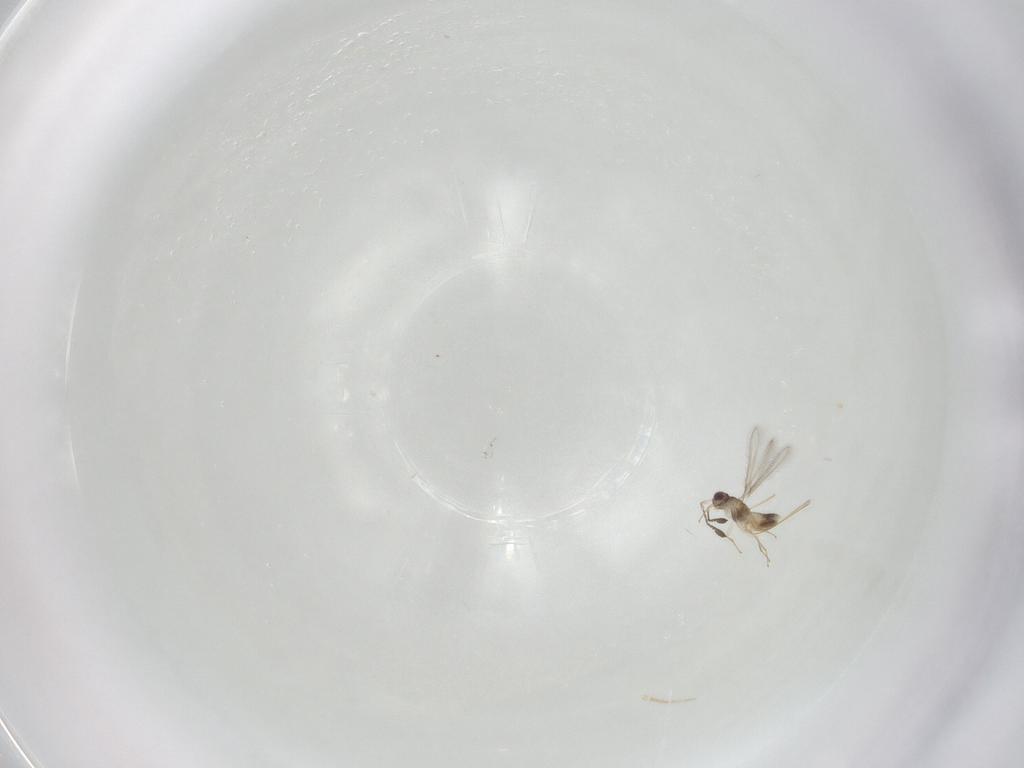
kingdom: Animalia
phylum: Arthropoda
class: Insecta
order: Hymenoptera
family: Mymaridae
